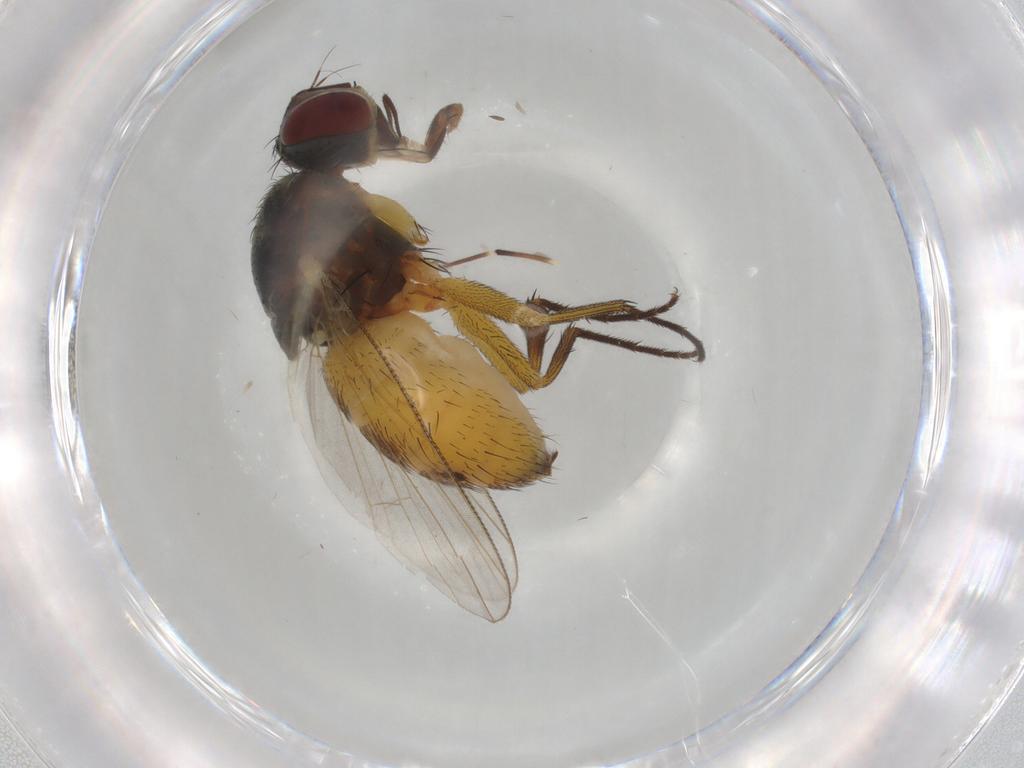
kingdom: Animalia
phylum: Arthropoda
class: Insecta
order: Diptera
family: Muscidae
